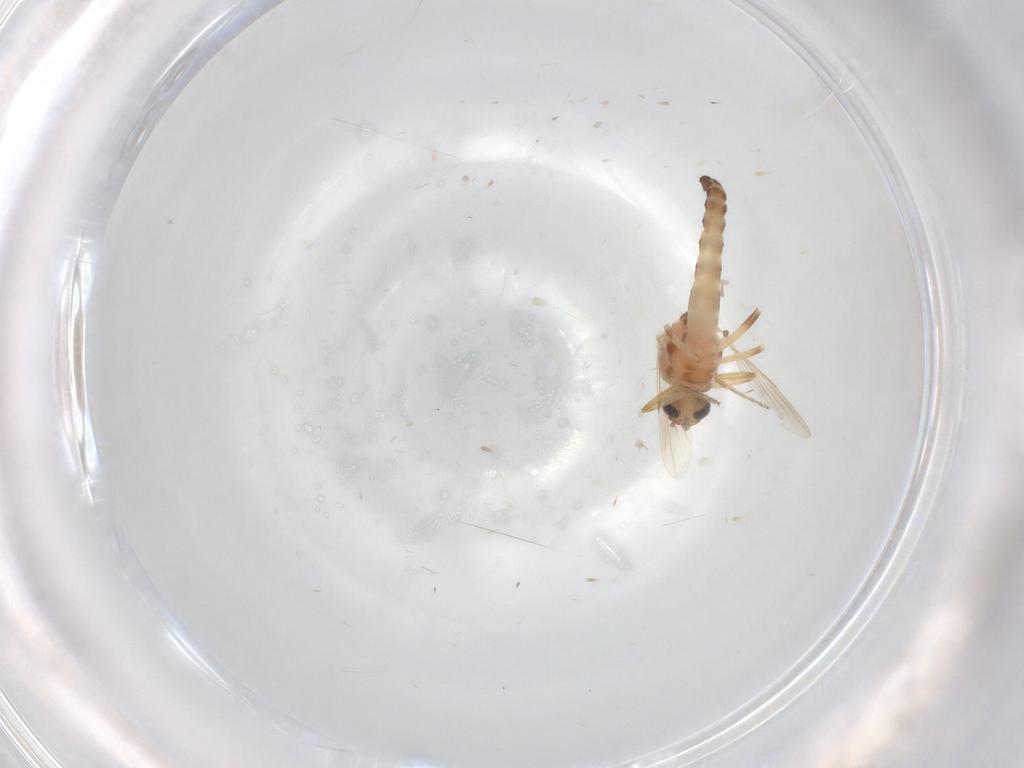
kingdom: Animalia
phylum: Arthropoda
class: Insecta
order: Diptera
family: Ceratopogonidae
